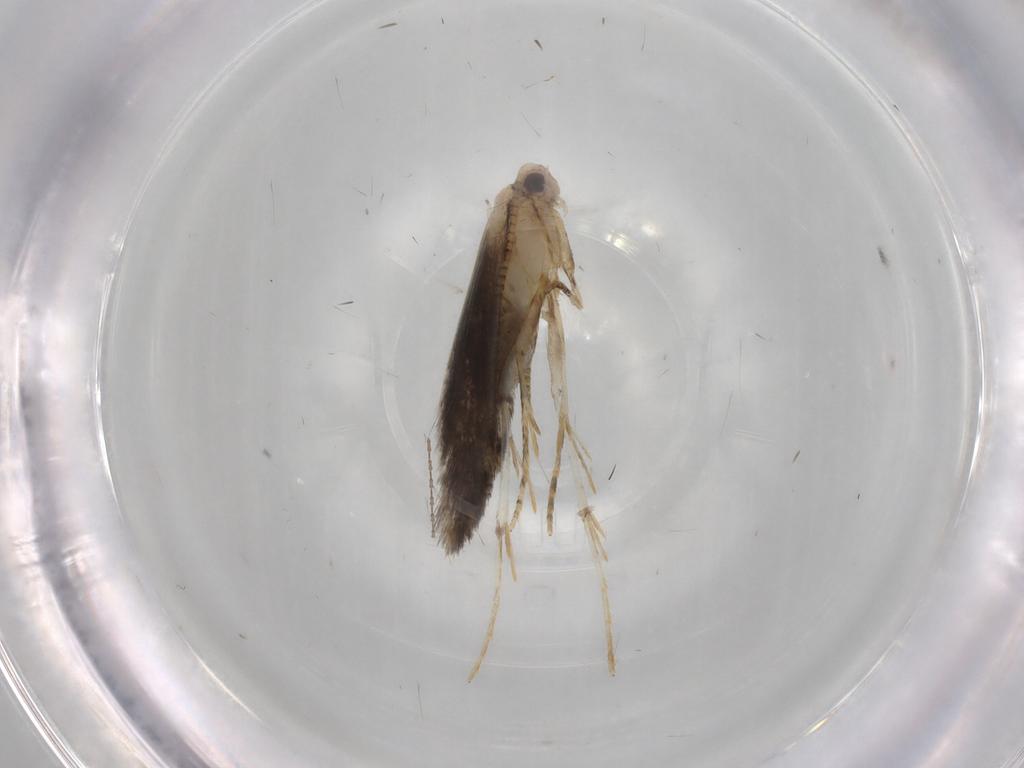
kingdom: Animalia
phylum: Arthropoda
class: Insecta
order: Lepidoptera
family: Tineidae
